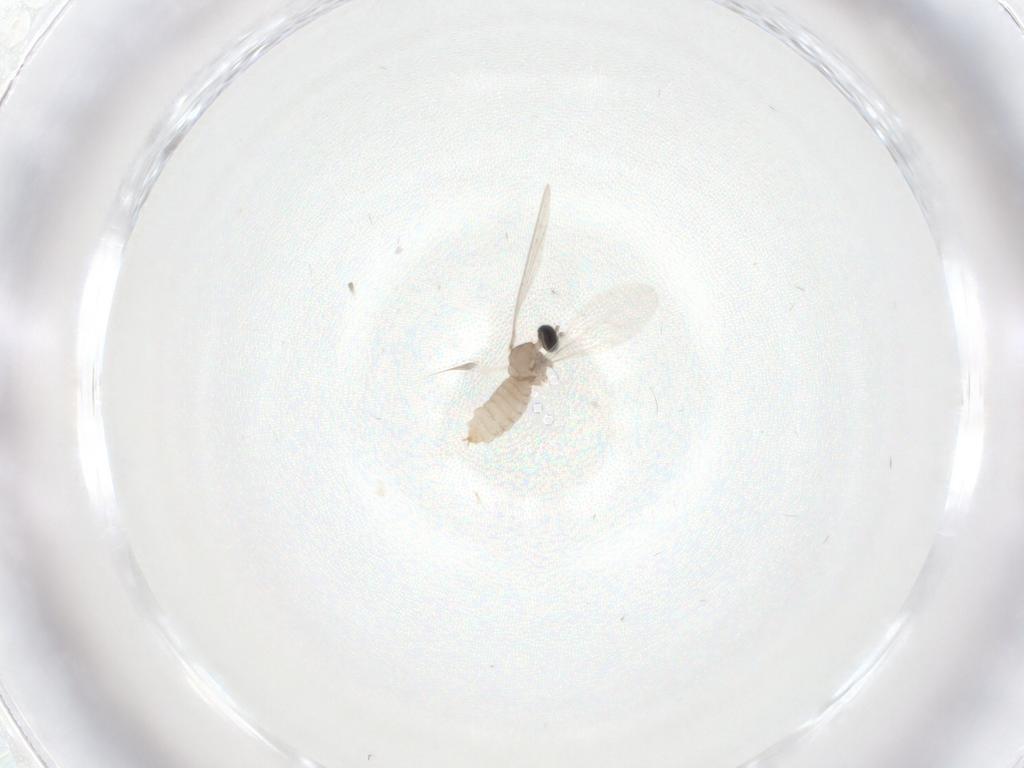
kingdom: Animalia
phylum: Arthropoda
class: Insecta
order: Diptera
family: Cecidomyiidae
